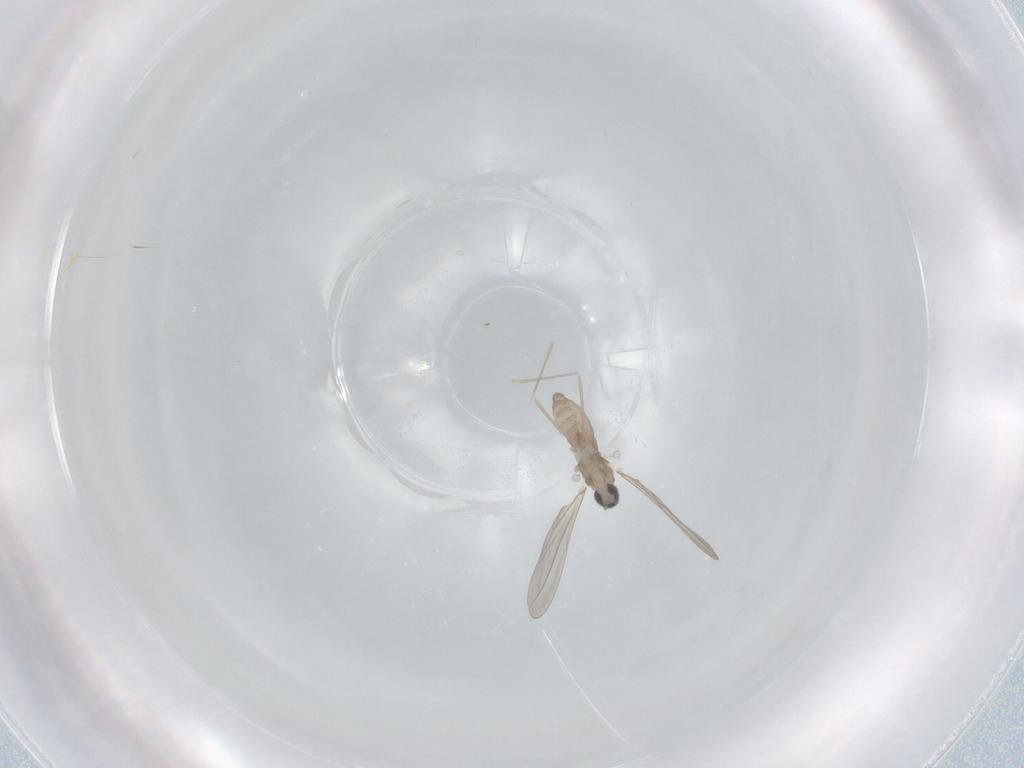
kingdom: Animalia
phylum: Arthropoda
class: Insecta
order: Diptera
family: Cecidomyiidae
